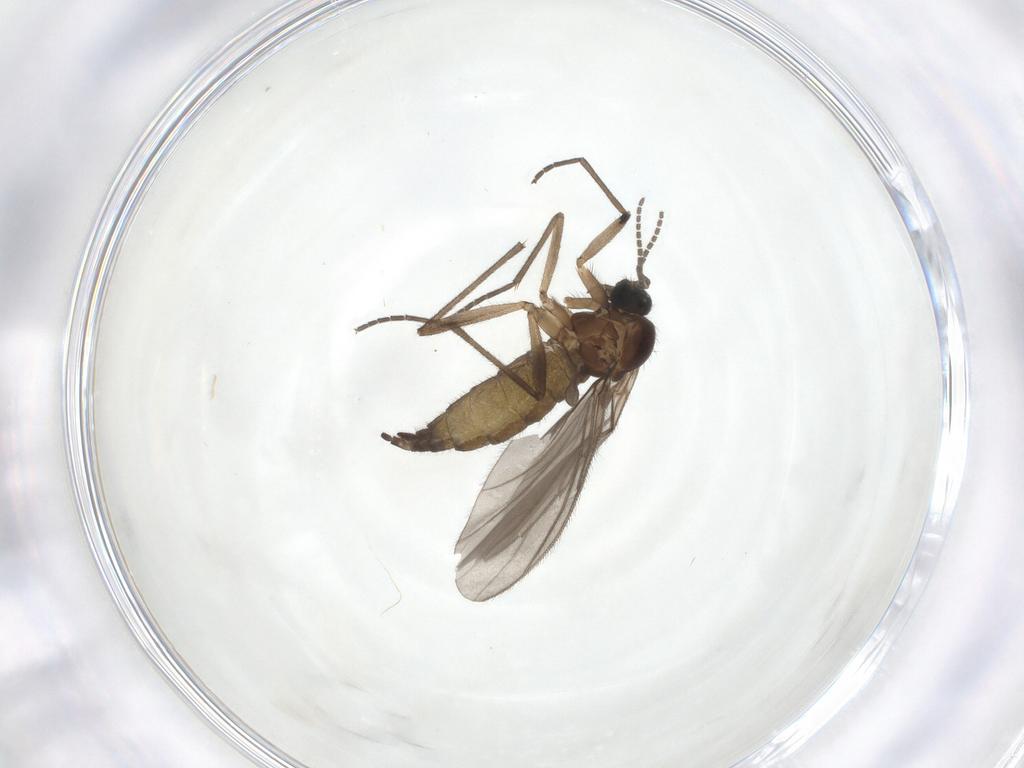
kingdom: Animalia
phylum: Arthropoda
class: Insecta
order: Diptera
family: Sciaridae
